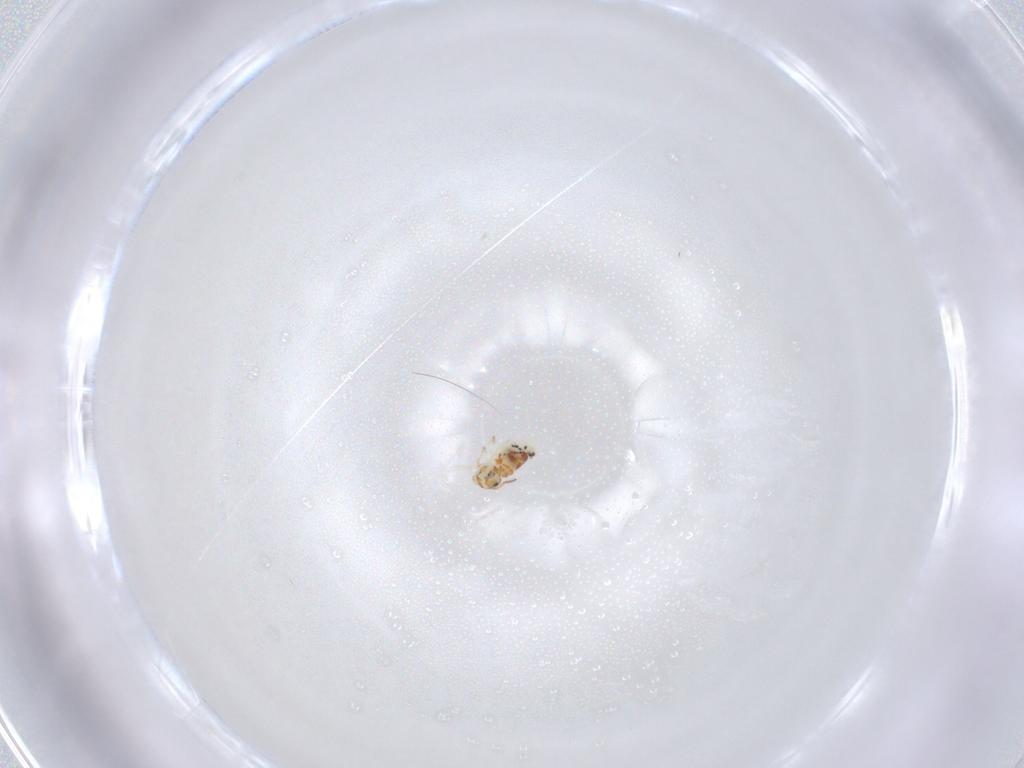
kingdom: Animalia
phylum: Arthropoda
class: Collembola
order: Symphypleona
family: Bourletiellidae
